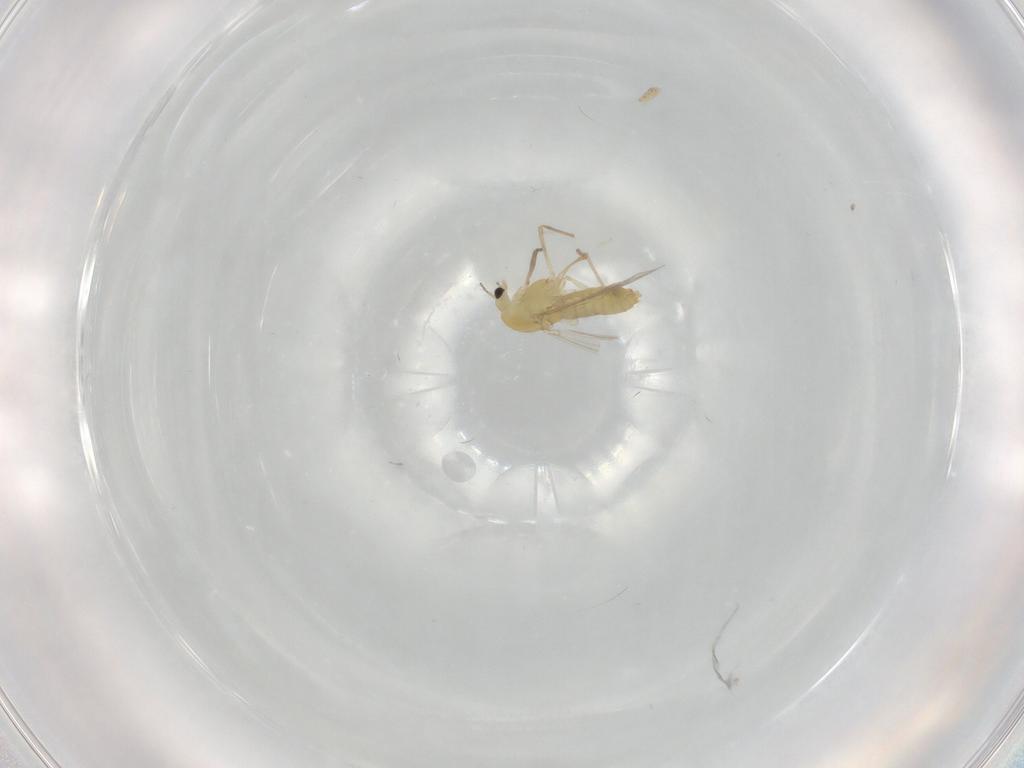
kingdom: Animalia
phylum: Arthropoda
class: Insecta
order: Diptera
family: Chironomidae
